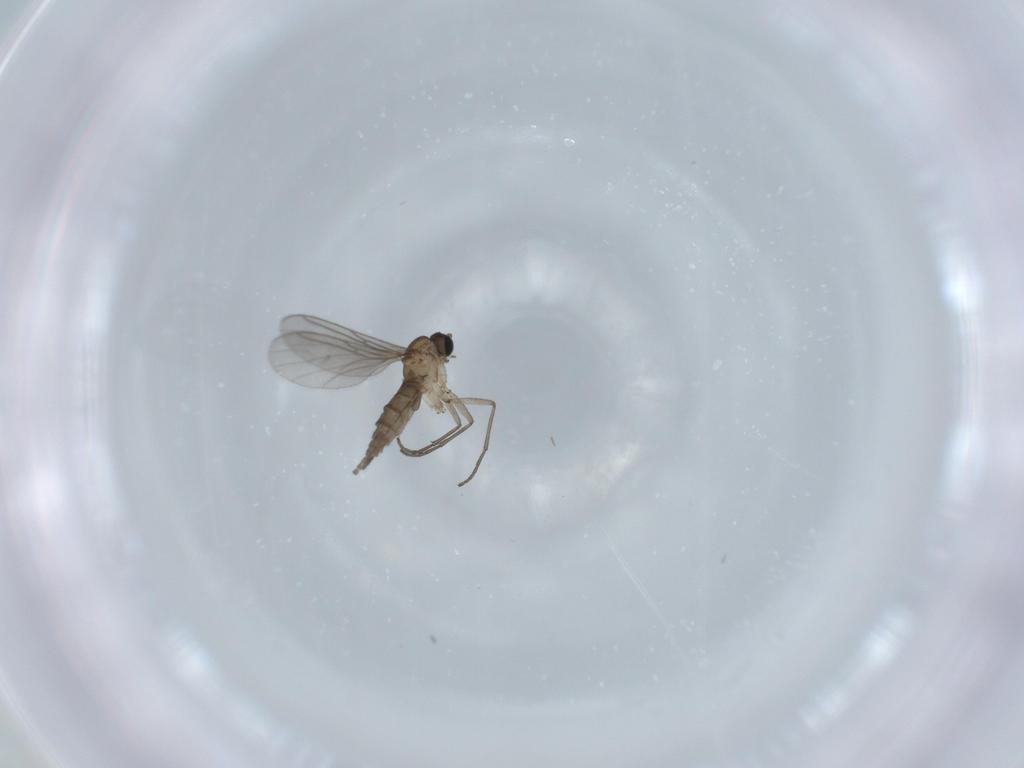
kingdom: Animalia
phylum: Arthropoda
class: Insecta
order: Diptera
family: Sciaridae
